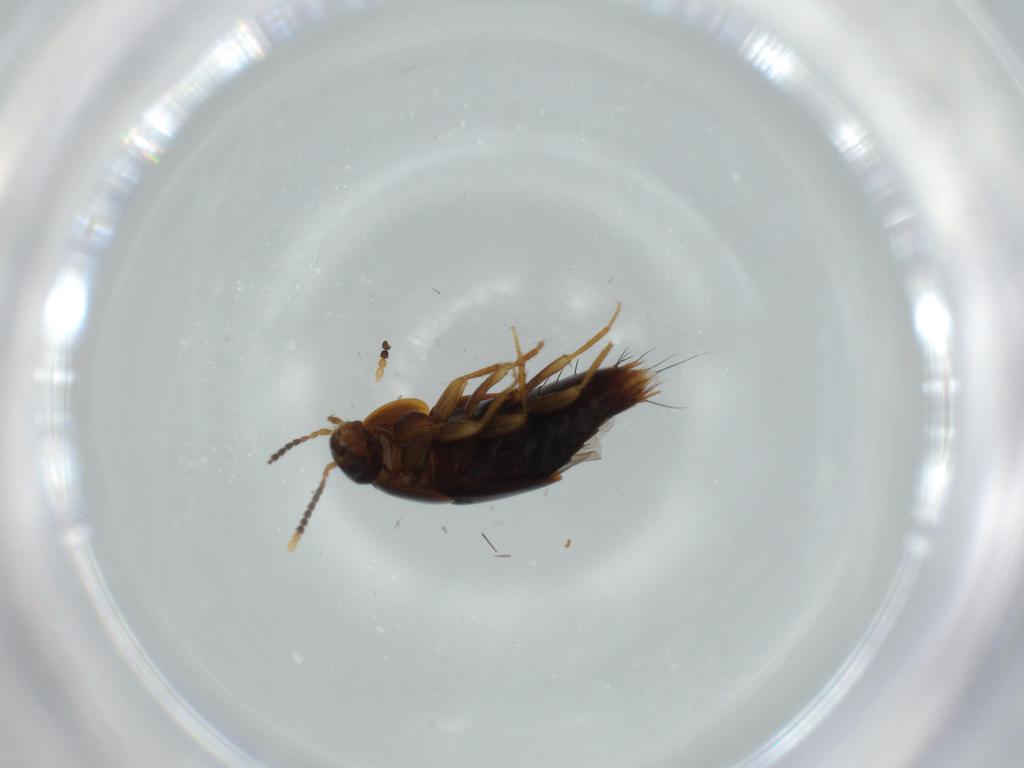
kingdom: Animalia
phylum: Arthropoda
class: Insecta
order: Coleoptera
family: Staphylinidae
